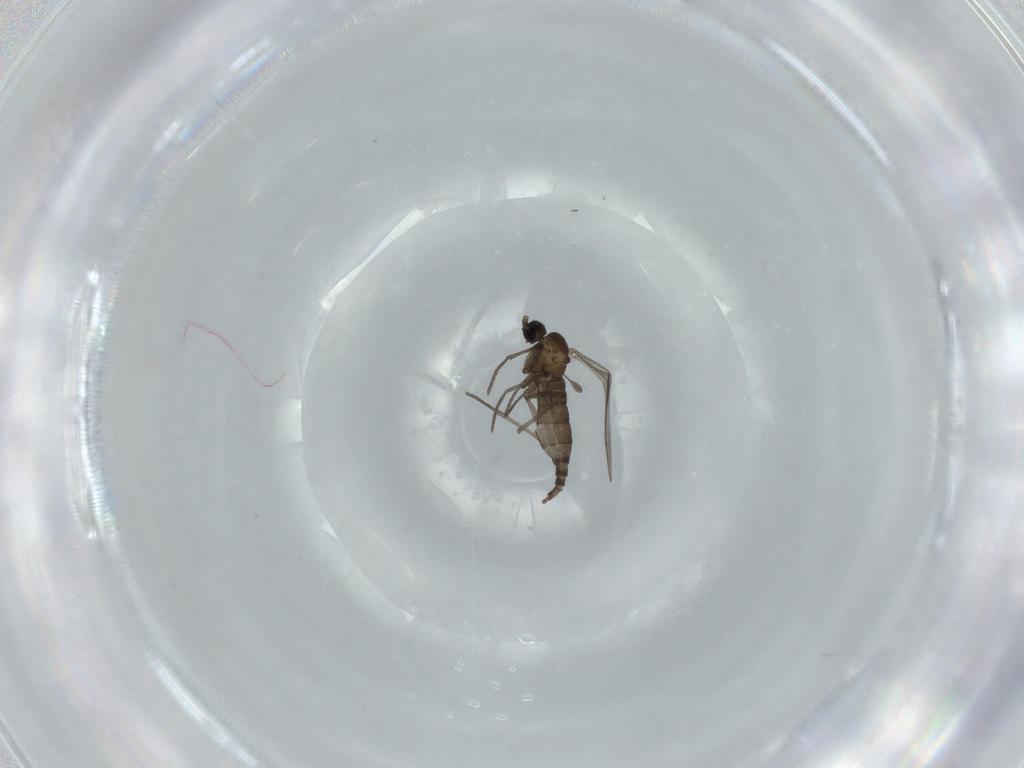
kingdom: Animalia
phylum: Arthropoda
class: Insecta
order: Diptera
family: Sciaridae
